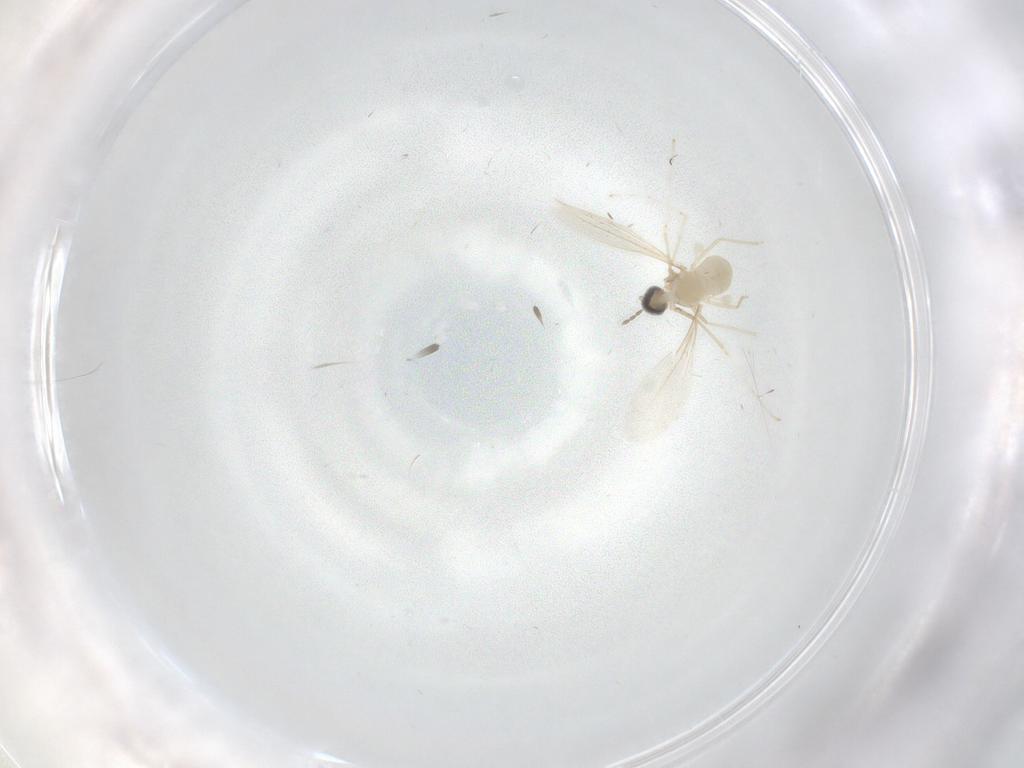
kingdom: Animalia
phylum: Arthropoda
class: Insecta
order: Diptera
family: Cecidomyiidae
